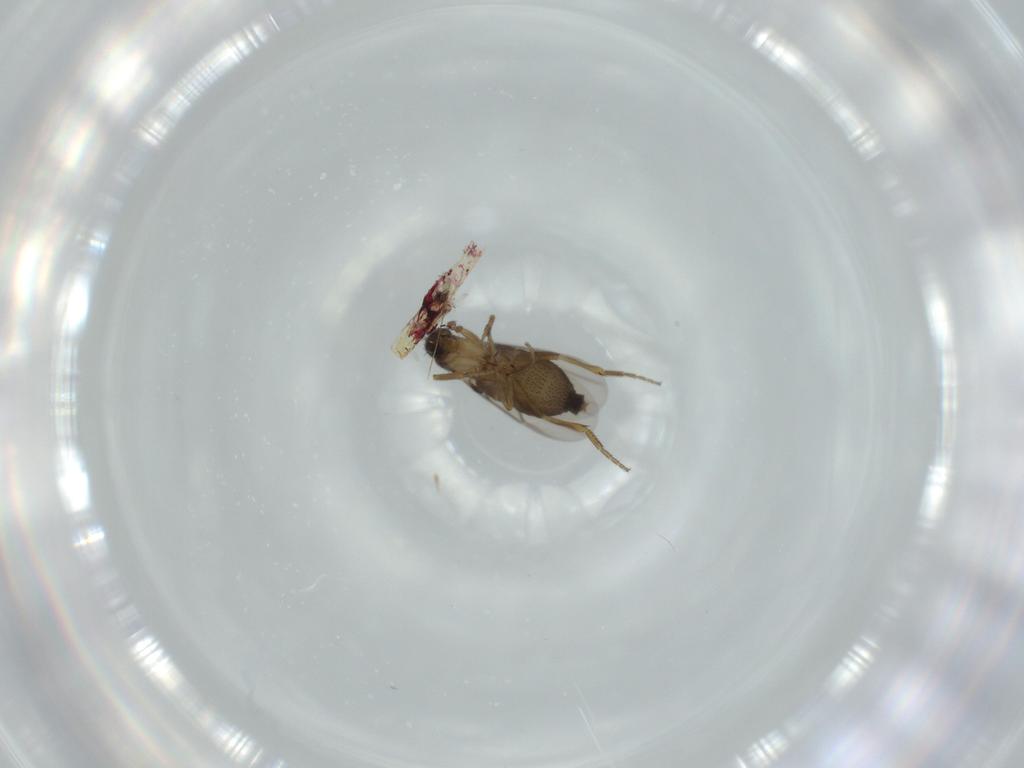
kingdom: Animalia
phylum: Arthropoda
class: Insecta
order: Diptera
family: Phoridae
